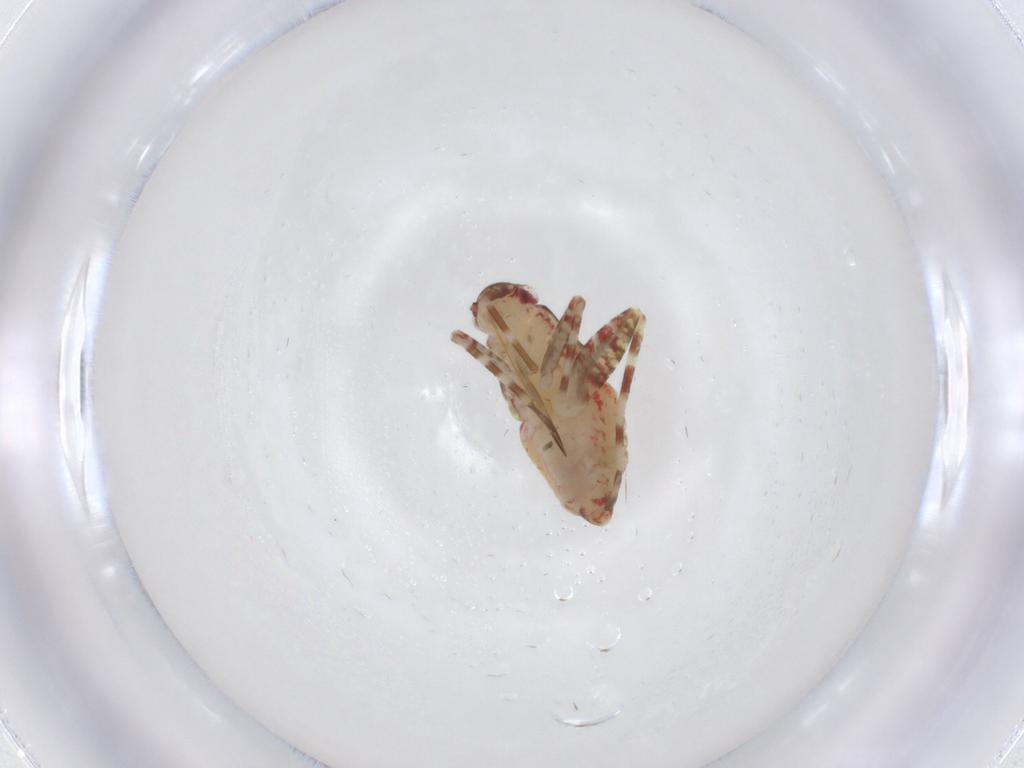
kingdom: Animalia
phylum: Arthropoda
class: Insecta
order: Hemiptera
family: Miridae
